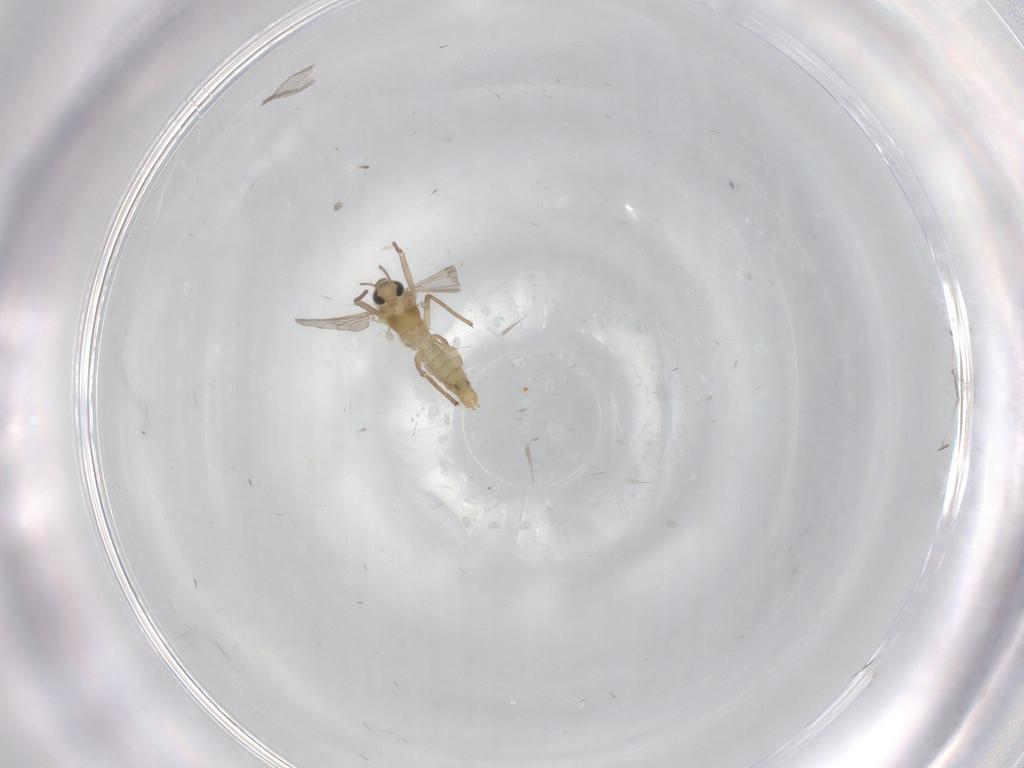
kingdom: Animalia
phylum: Arthropoda
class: Insecta
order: Diptera
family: Chironomidae
